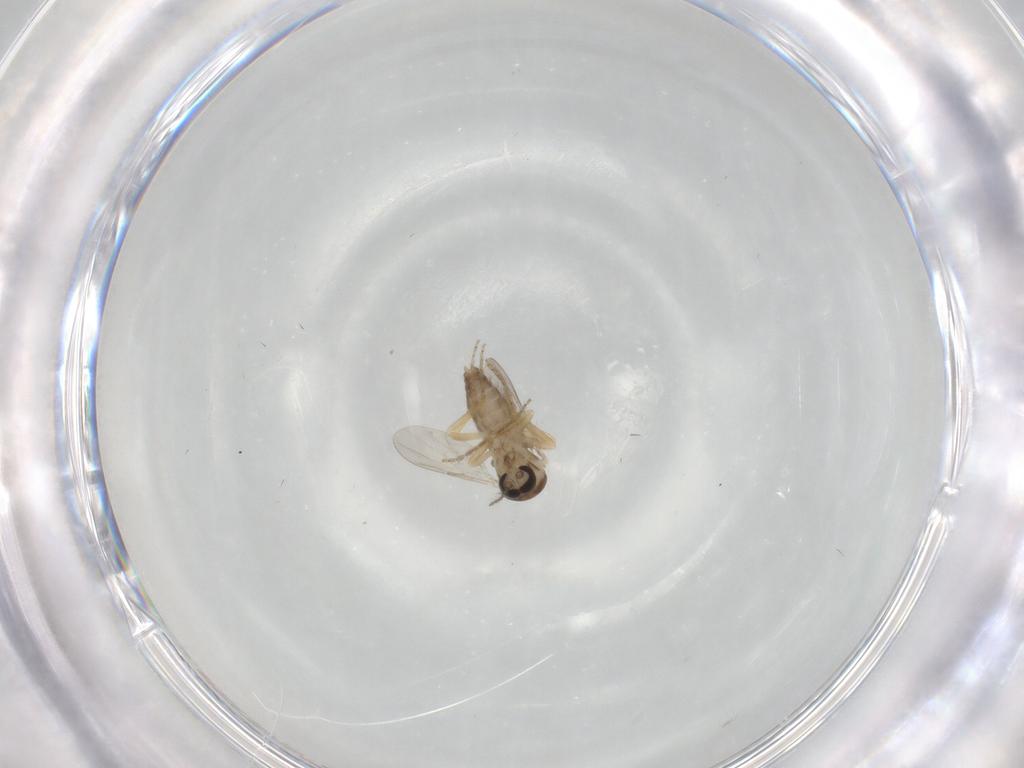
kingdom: Animalia
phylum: Arthropoda
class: Insecta
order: Diptera
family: Ceratopogonidae
